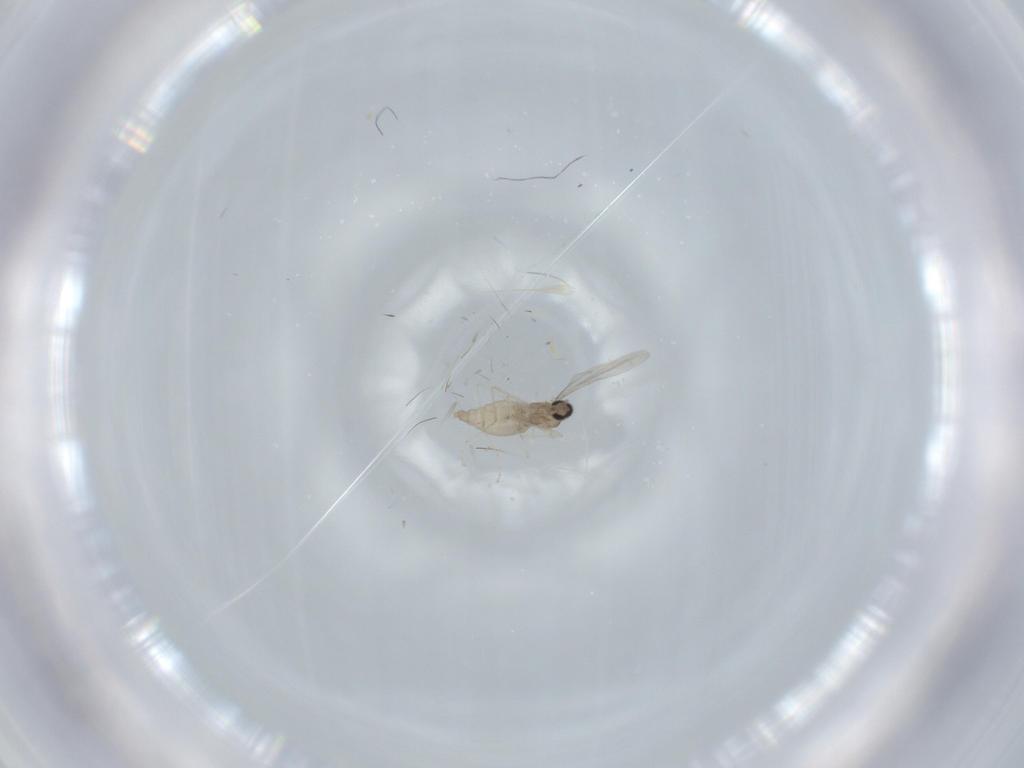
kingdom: Animalia
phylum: Arthropoda
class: Insecta
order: Diptera
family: Cecidomyiidae
